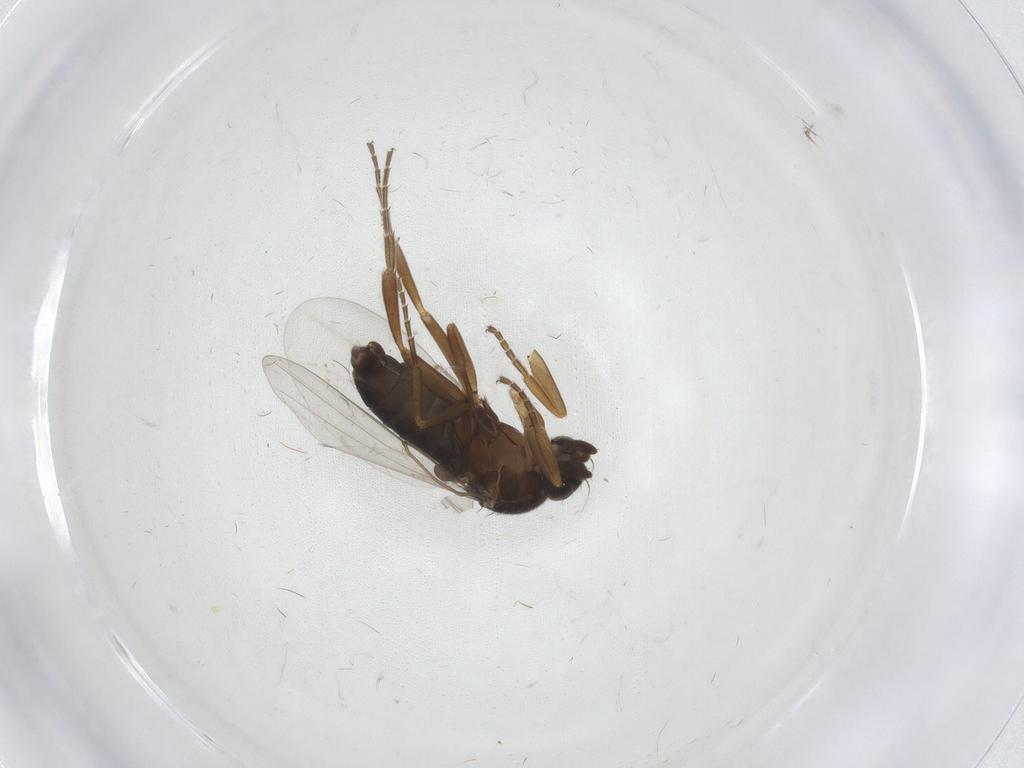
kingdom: Animalia
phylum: Arthropoda
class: Insecta
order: Diptera
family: Phoridae
